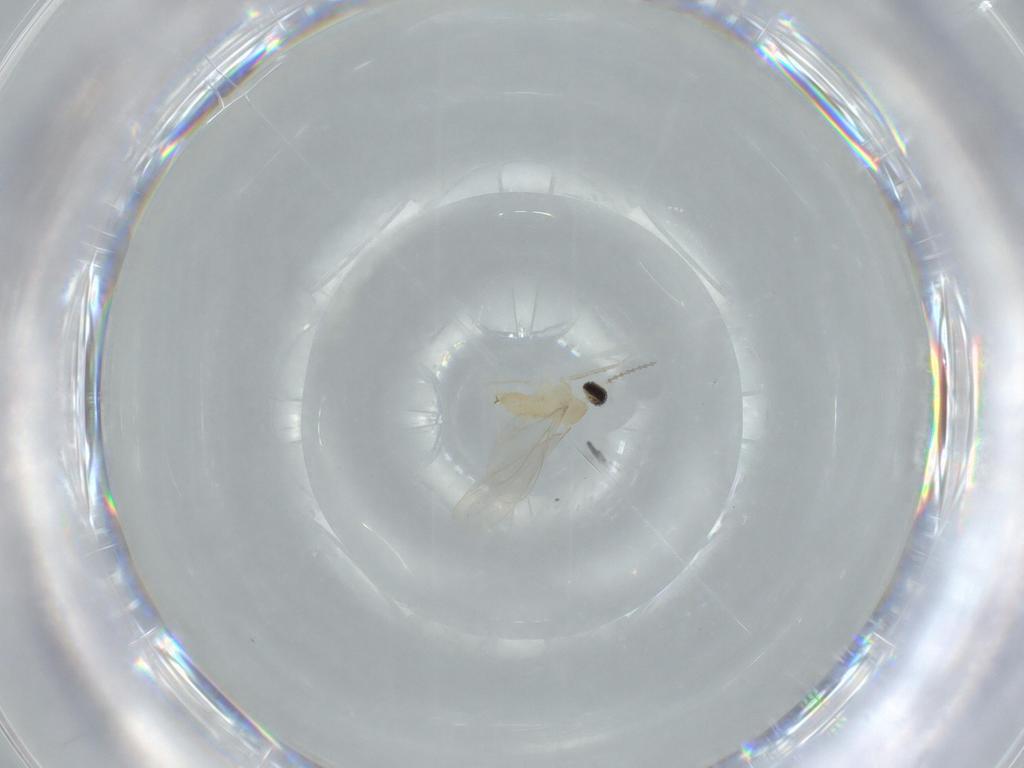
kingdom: Animalia
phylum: Arthropoda
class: Insecta
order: Diptera
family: Cecidomyiidae
